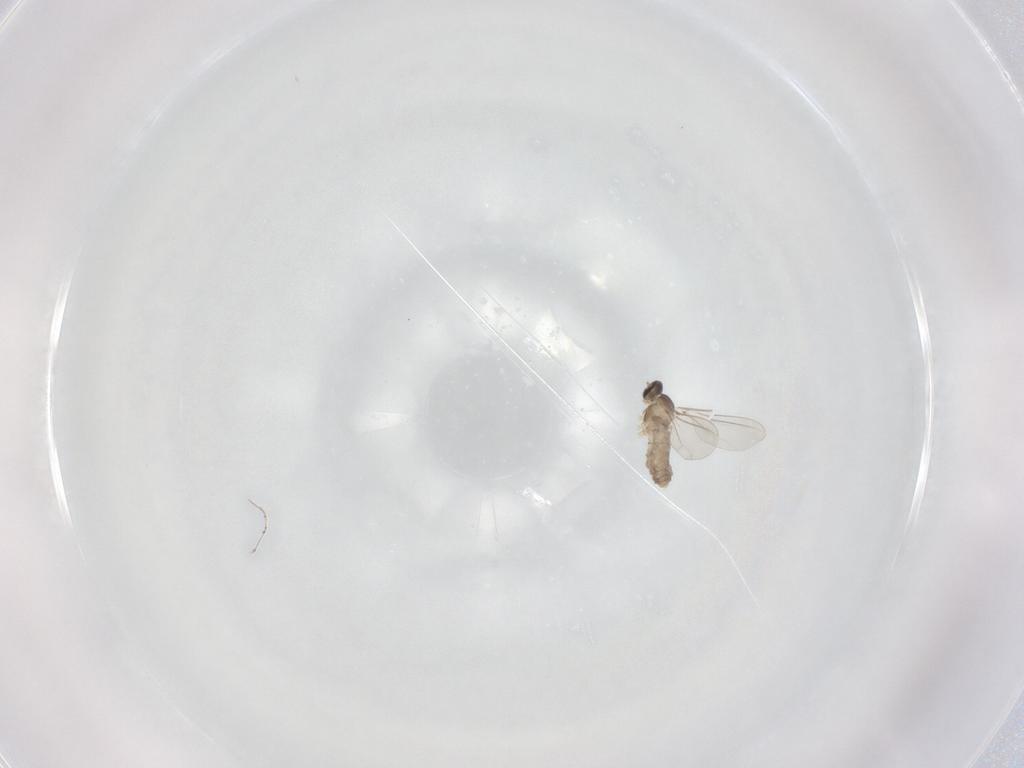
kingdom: Animalia
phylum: Arthropoda
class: Insecta
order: Diptera
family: Cecidomyiidae
